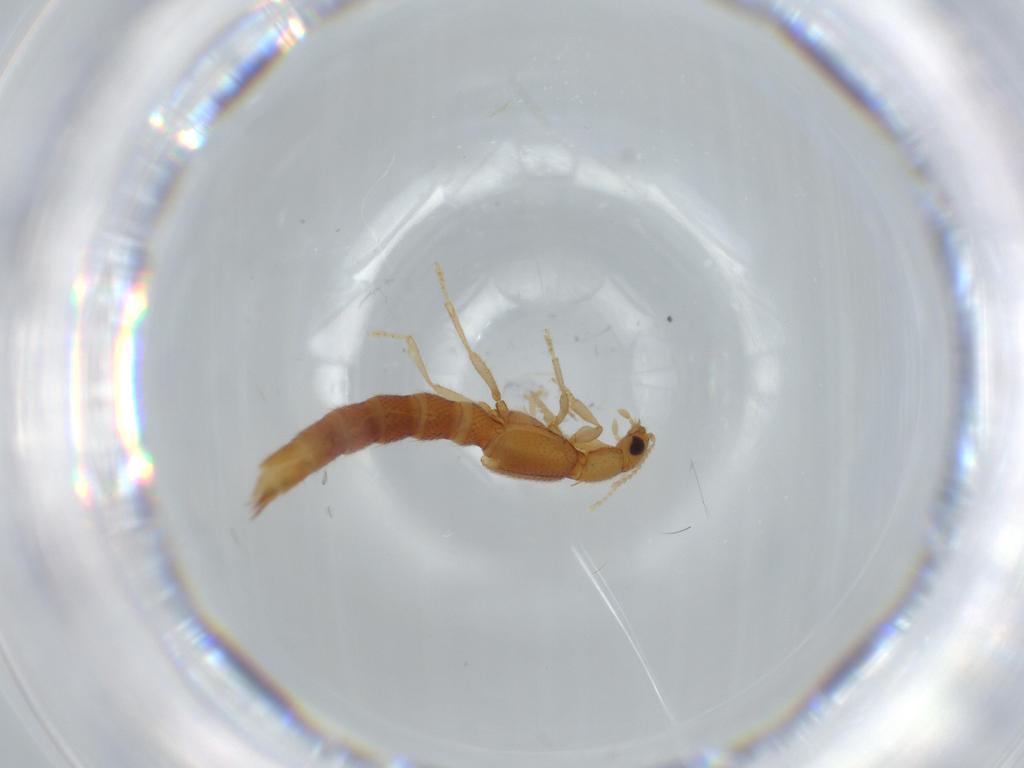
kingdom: Animalia
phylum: Arthropoda
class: Insecta
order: Coleoptera
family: Staphylinidae
